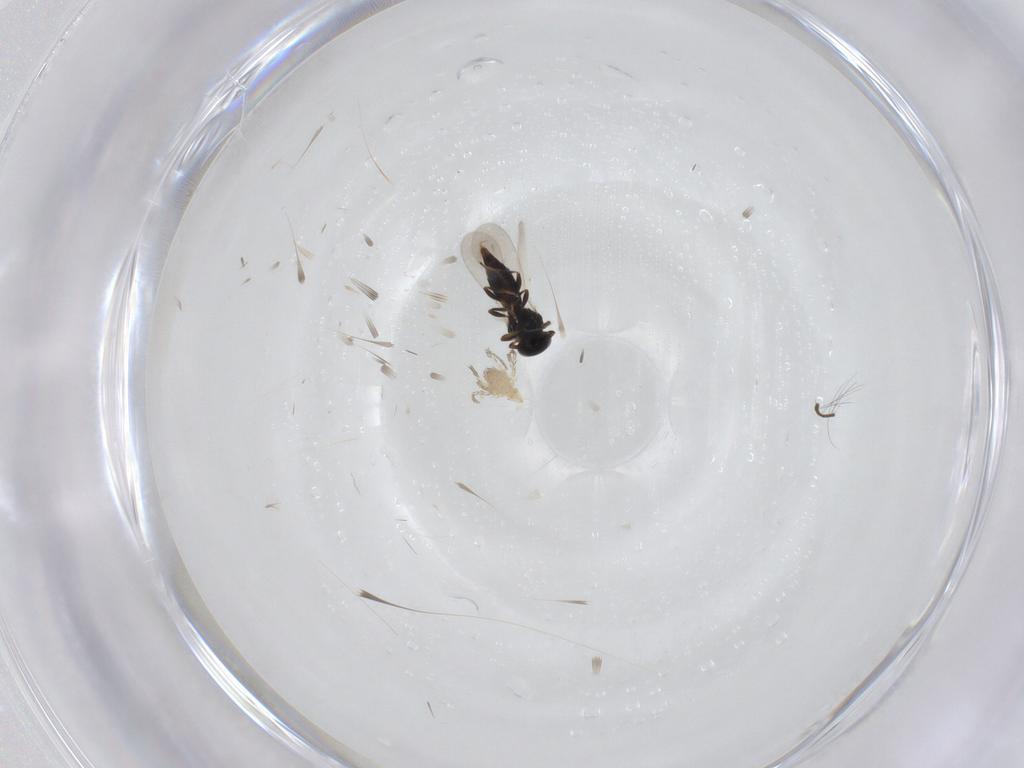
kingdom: Animalia
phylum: Arthropoda
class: Insecta
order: Hymenoptera
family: Platygastridae
